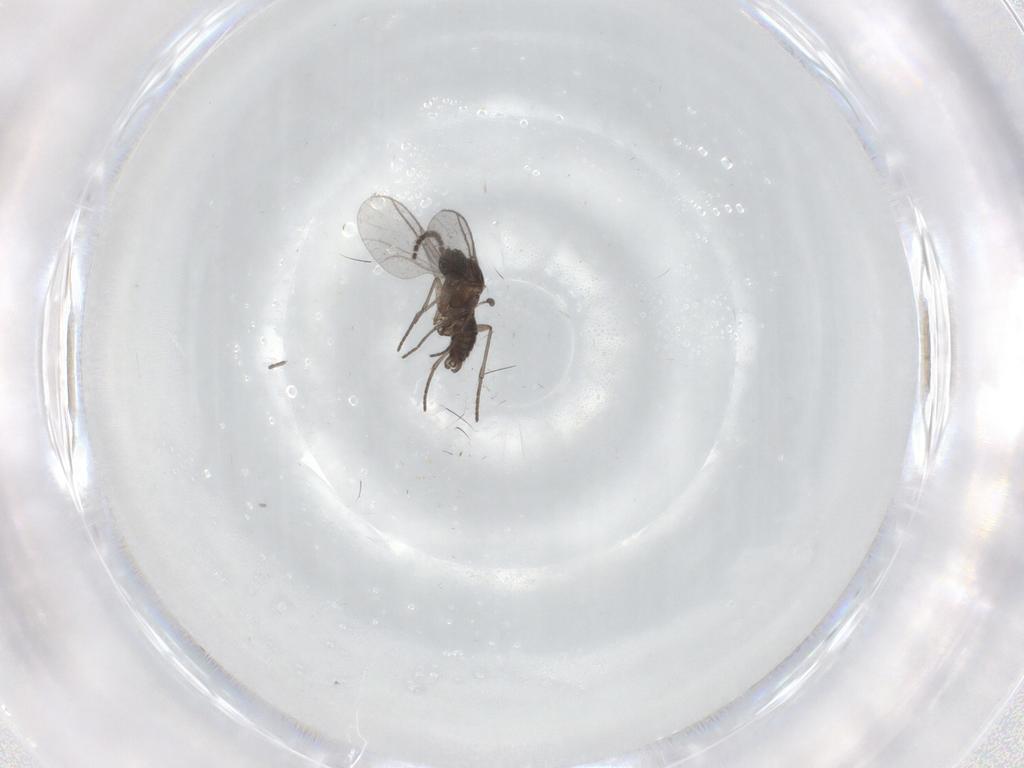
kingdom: Animalia
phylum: Arthropoda
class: Insecta
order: Diptera
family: Sciaridae
